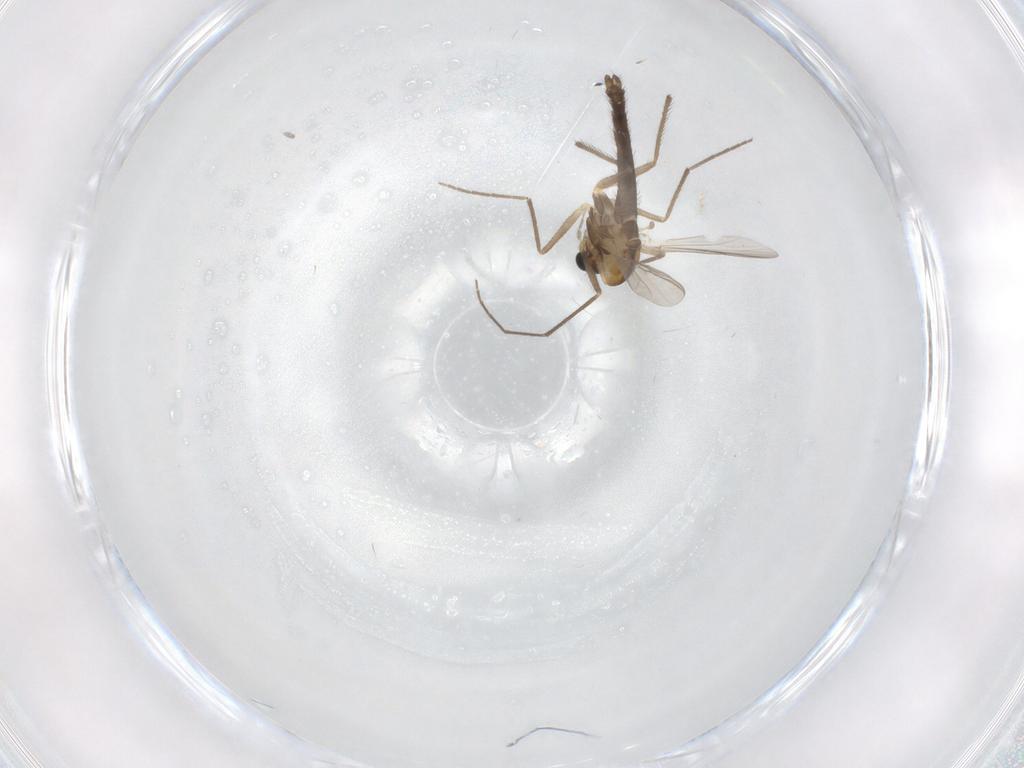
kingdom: Animalia
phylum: Arthropoda
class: Insecta
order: Diptera
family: Chironomidae
